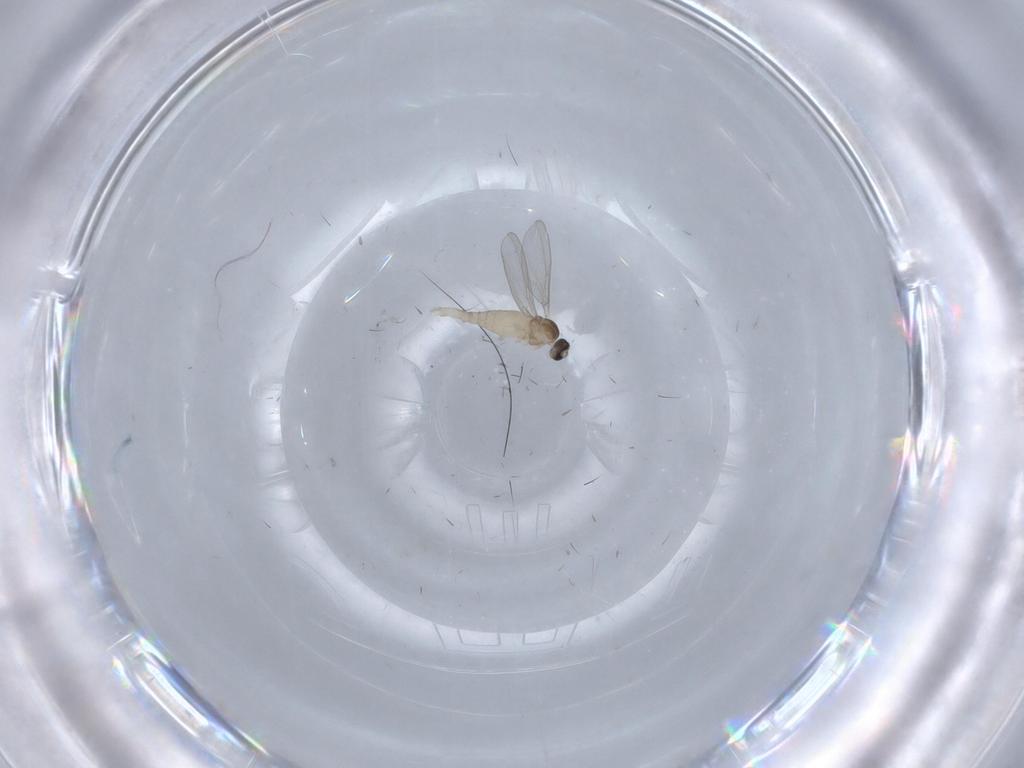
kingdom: Animalia
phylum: Arthropoda
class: Insecta
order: Diptera
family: Cecidomyiidae
